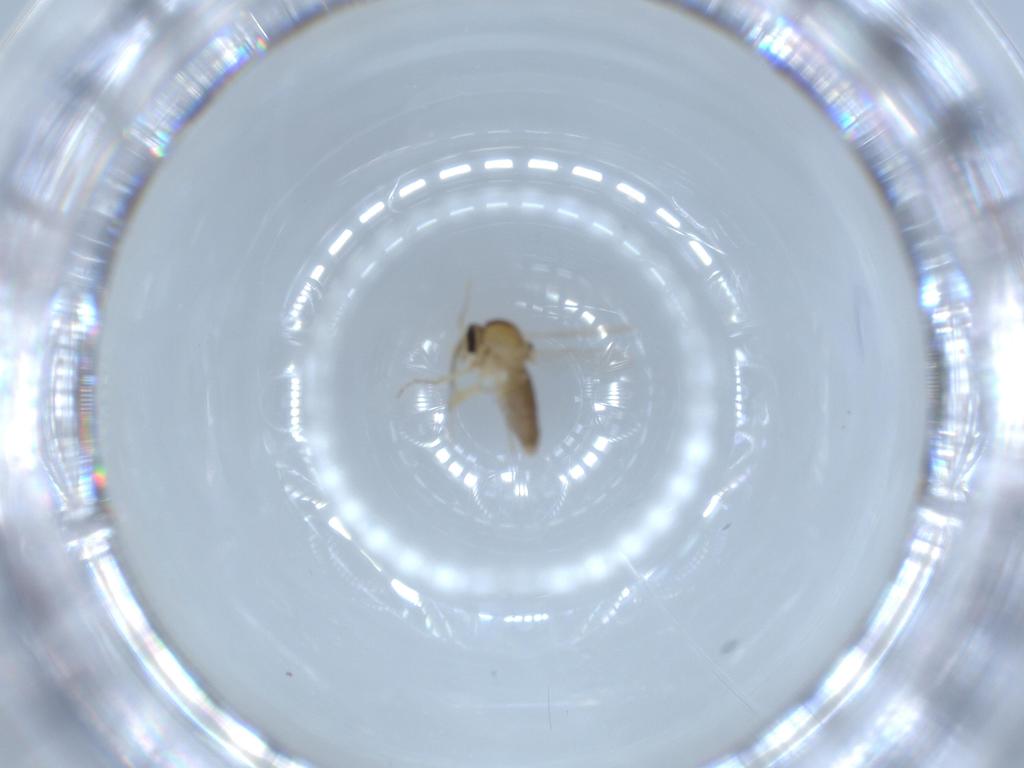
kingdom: Animalia
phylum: Arthropoda
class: Insecta
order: Diptera
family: Ceratopogonidae
